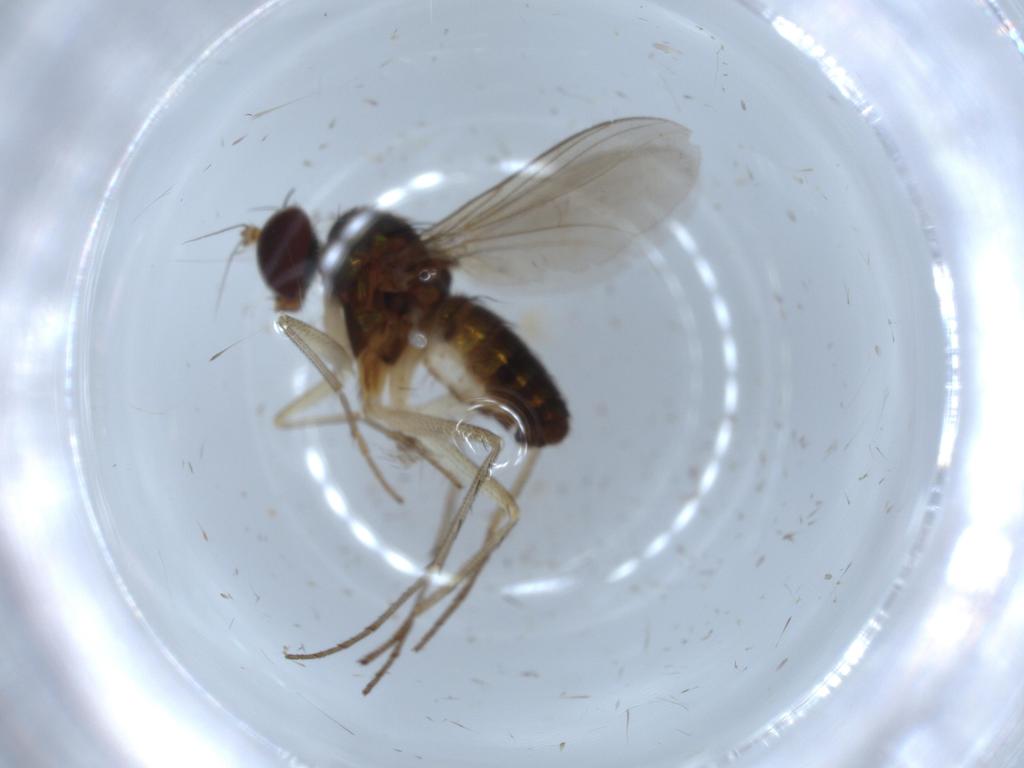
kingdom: Animalia
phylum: Arthropoda
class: Insecta
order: Diptera
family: Dolichopodidae
